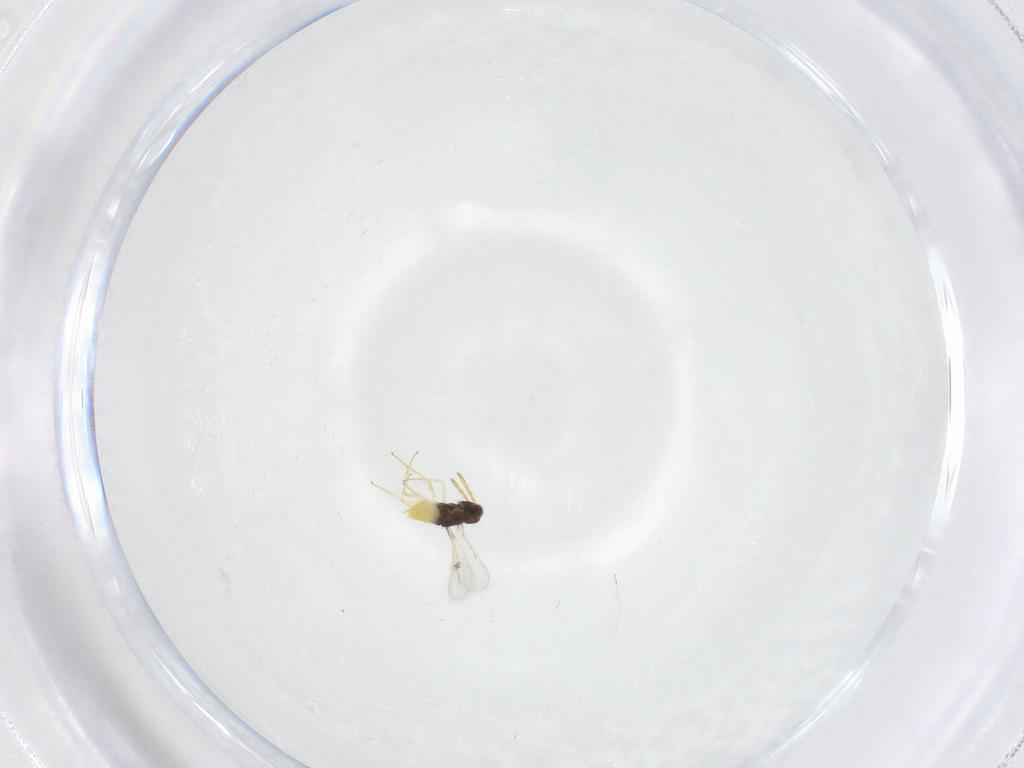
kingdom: Animalia
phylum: Arthropoda
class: Insecta
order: Hymenoptera
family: Aphelinidae
